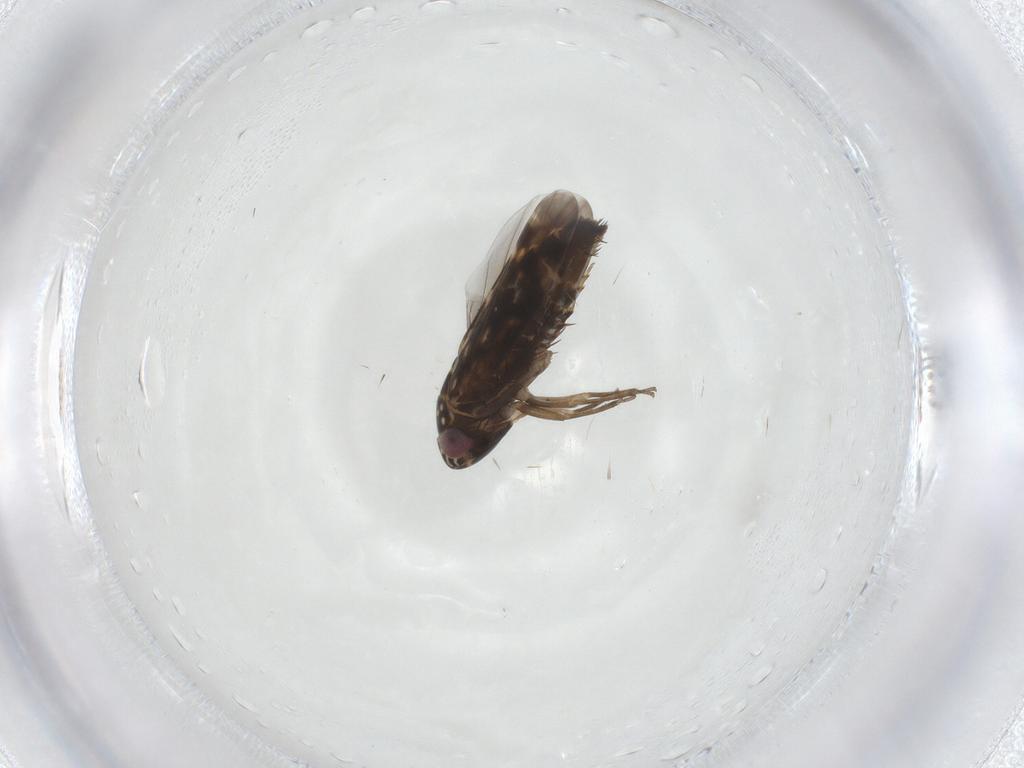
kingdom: Animalia
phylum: Arthropoda
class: Insecta
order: Hemiptera
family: Cicadellidae
